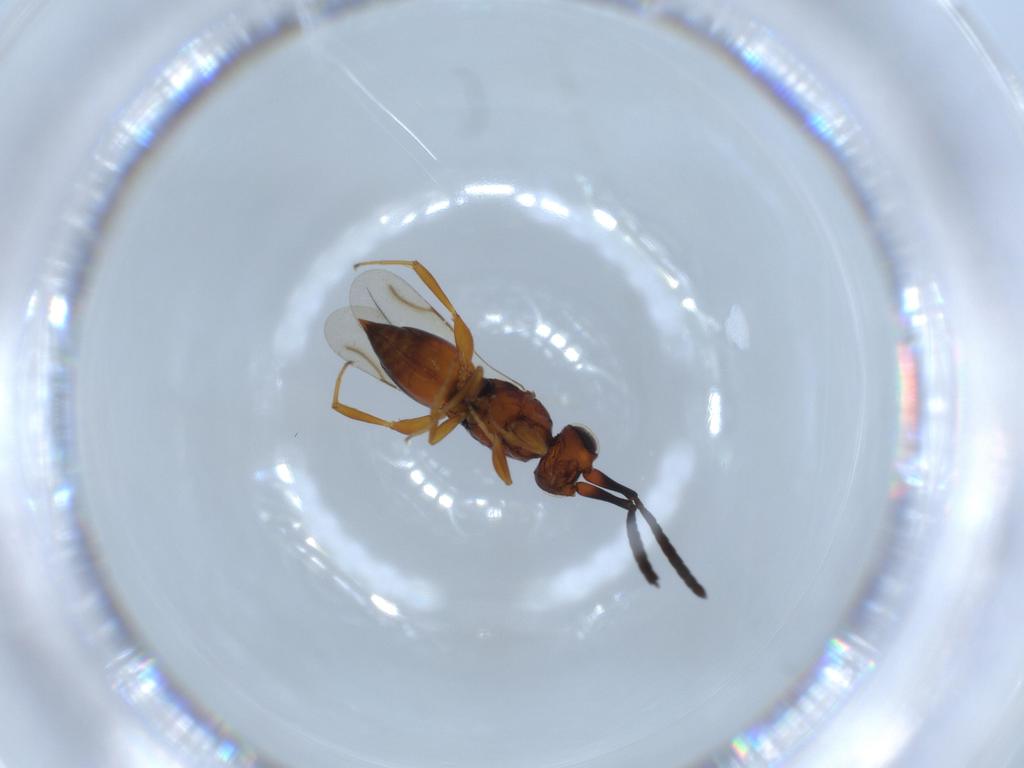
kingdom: Animalia
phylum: Arthropoda
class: Insecta
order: Hymenoptera
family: Ceraphronidae
